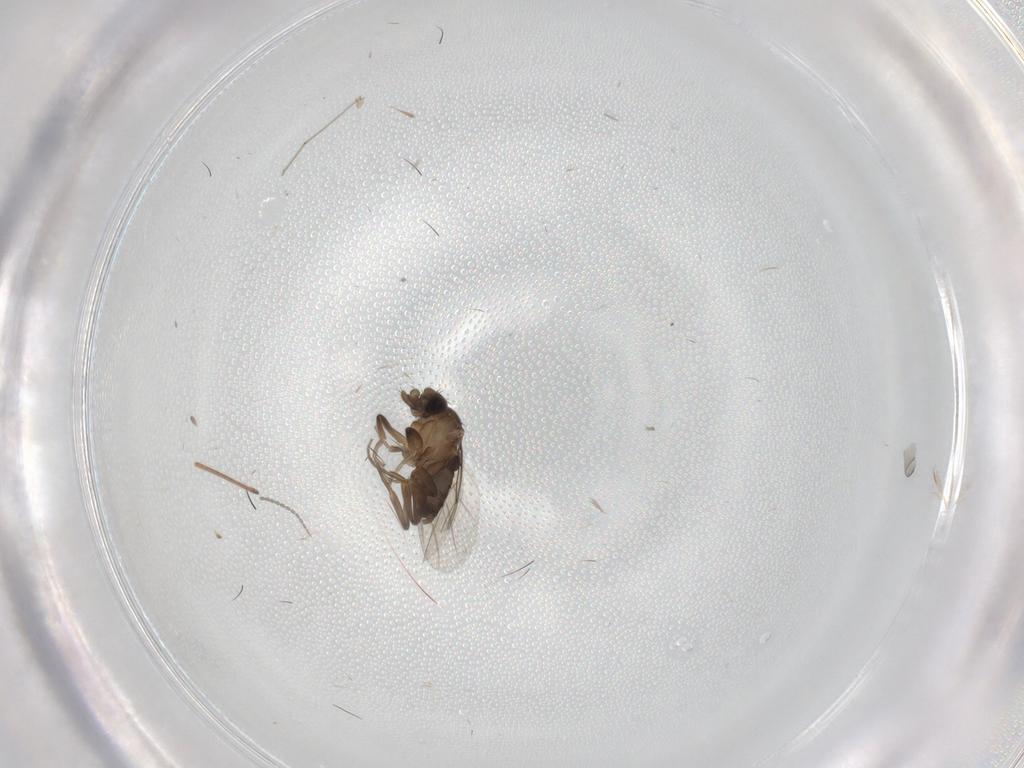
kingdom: Animalia
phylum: Arthropoda
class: Insecta
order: Diptera
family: Phoridae
